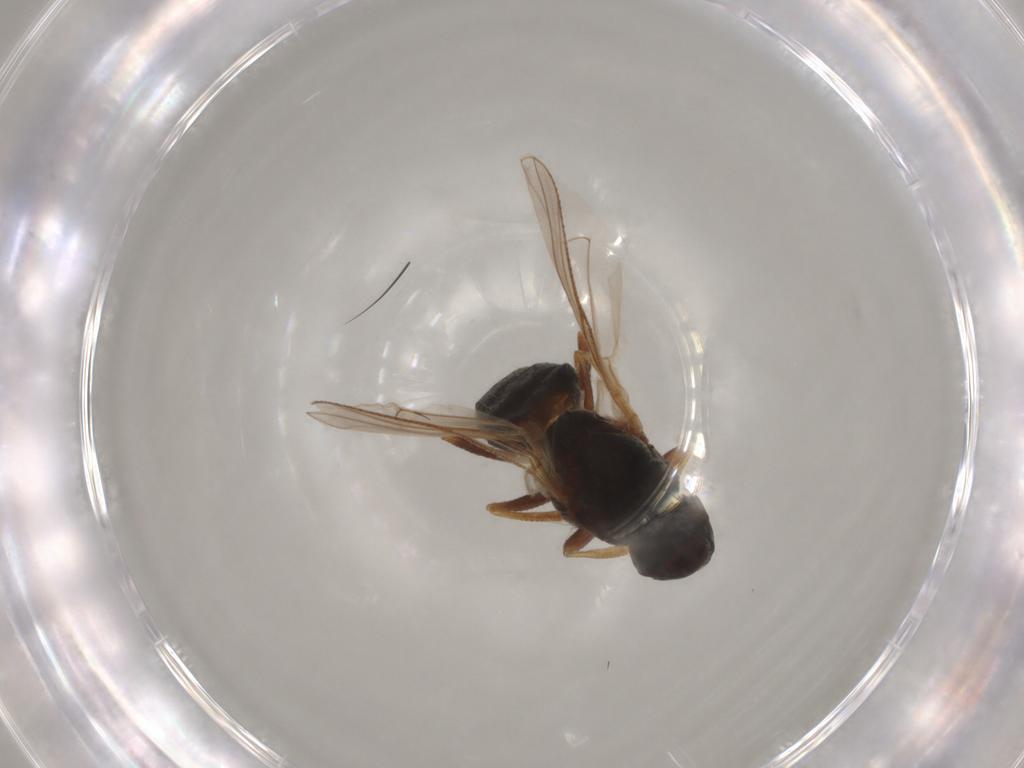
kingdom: Animalia
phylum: Arthropoda
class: Insecta
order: Diptera
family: Muscidae
